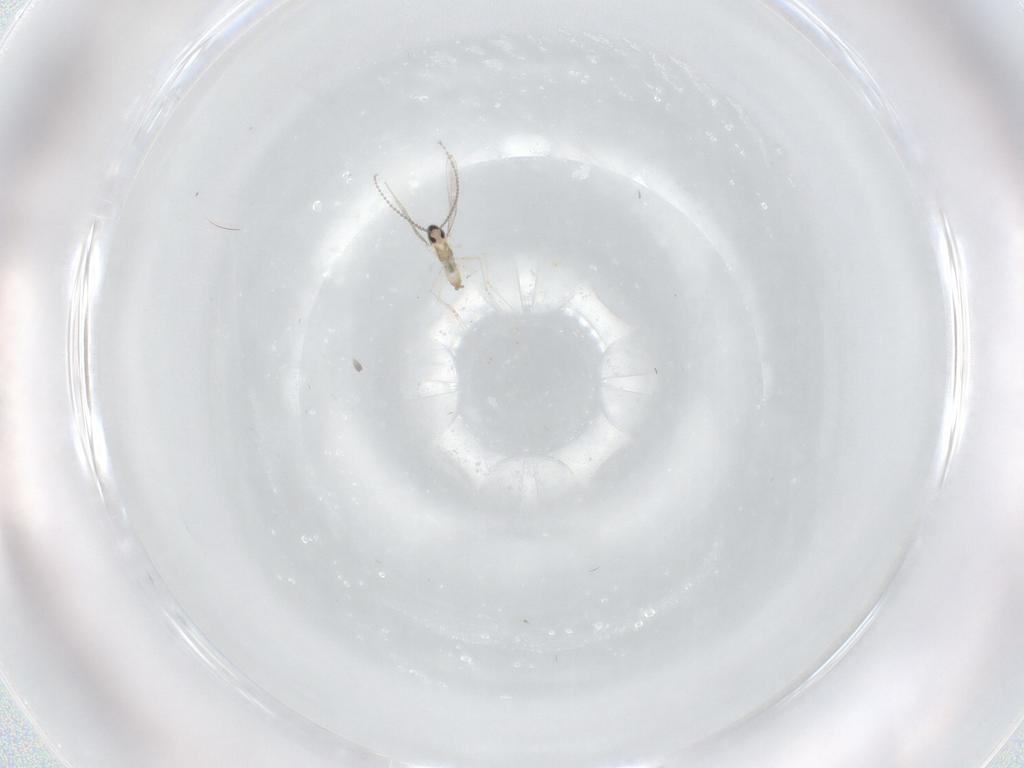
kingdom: Animalia
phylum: Arthropoda
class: Insecta
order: Diptera
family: Cecidomyiidae
